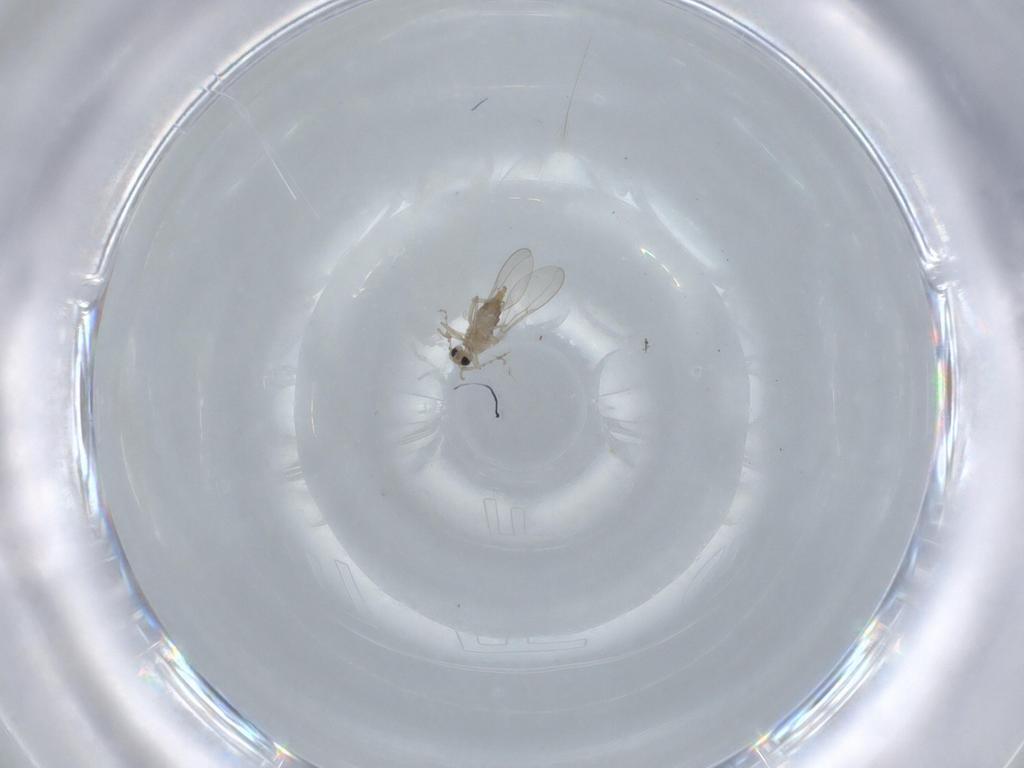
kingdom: Animalia
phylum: Arthropoda
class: Insecta
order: Diptera
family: Cecidomyiidae
